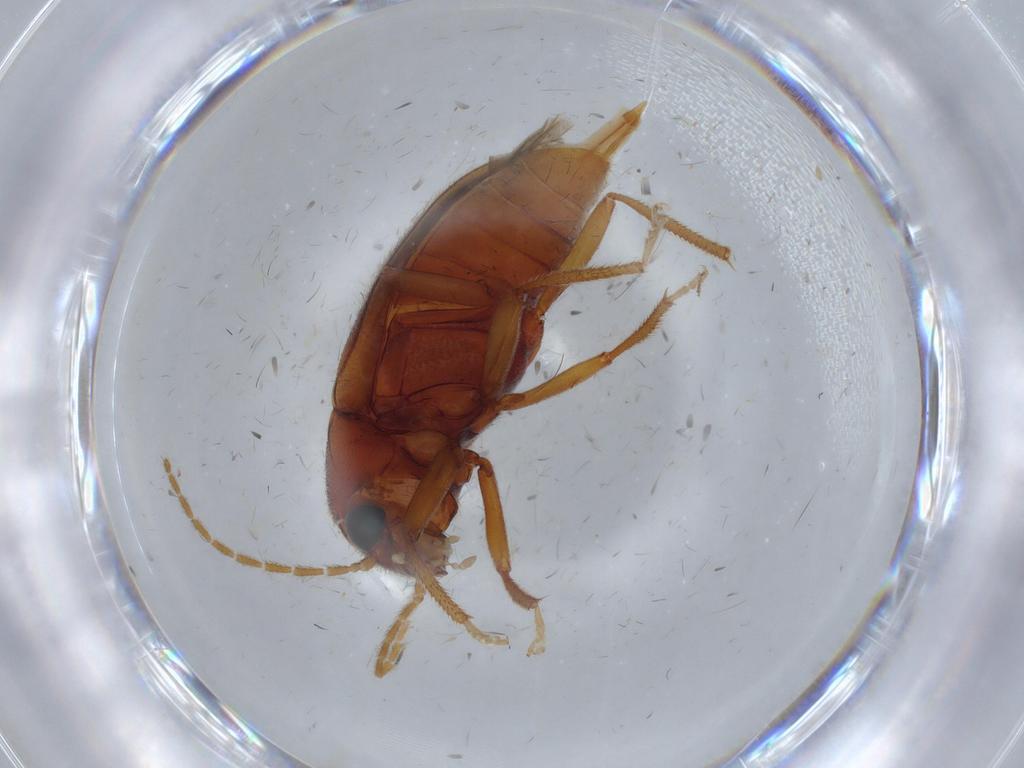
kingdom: Animalia
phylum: Arthropoda
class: Insecta
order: Coleoptera
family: Ptilodactylidae
